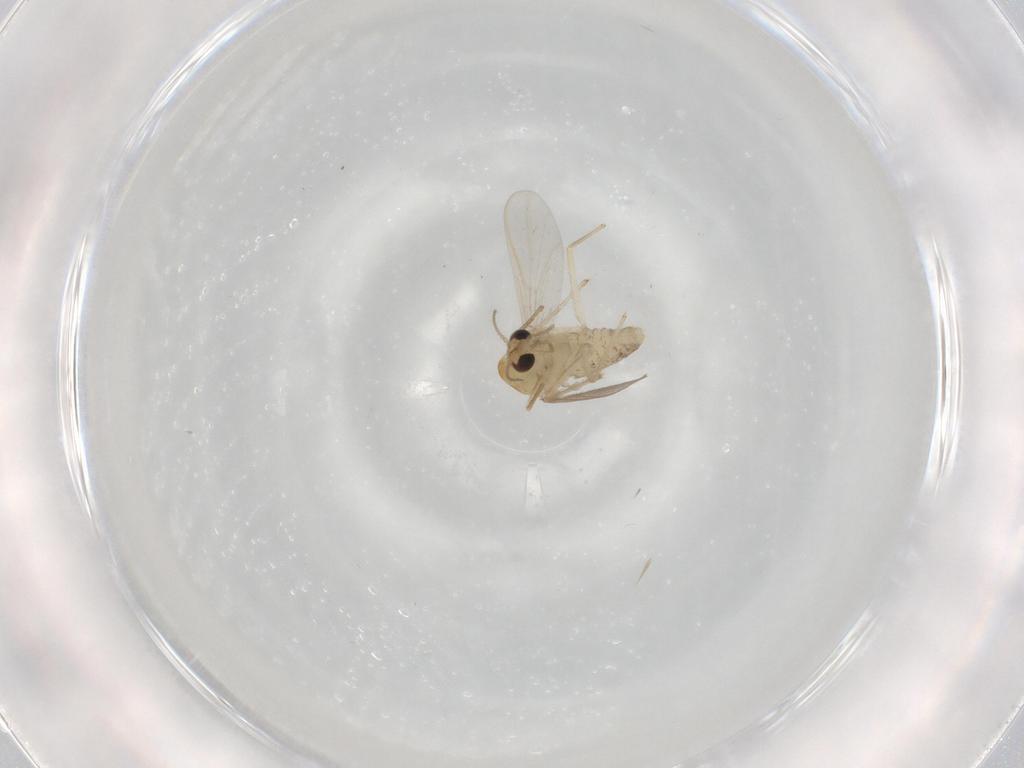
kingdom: Animalia
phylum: Arthropoda
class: Insecta
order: Diptera
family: Chironomidae
